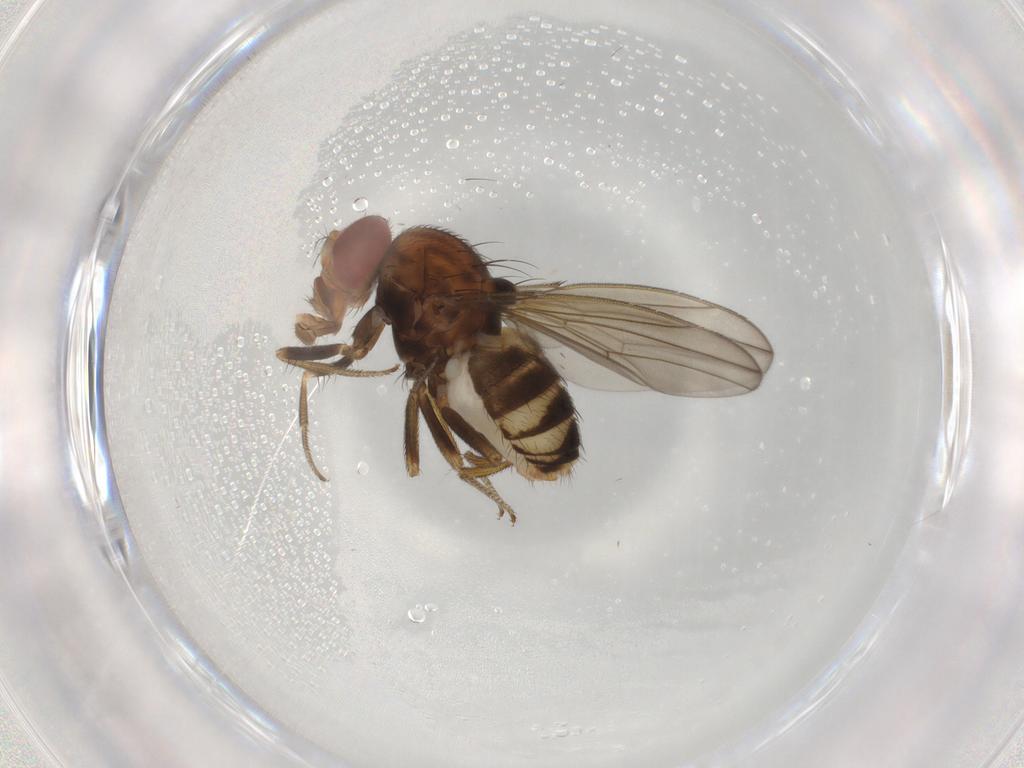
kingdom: Animalia
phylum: Arthropoda
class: Insecta
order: Diptera
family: Drosophilidae
